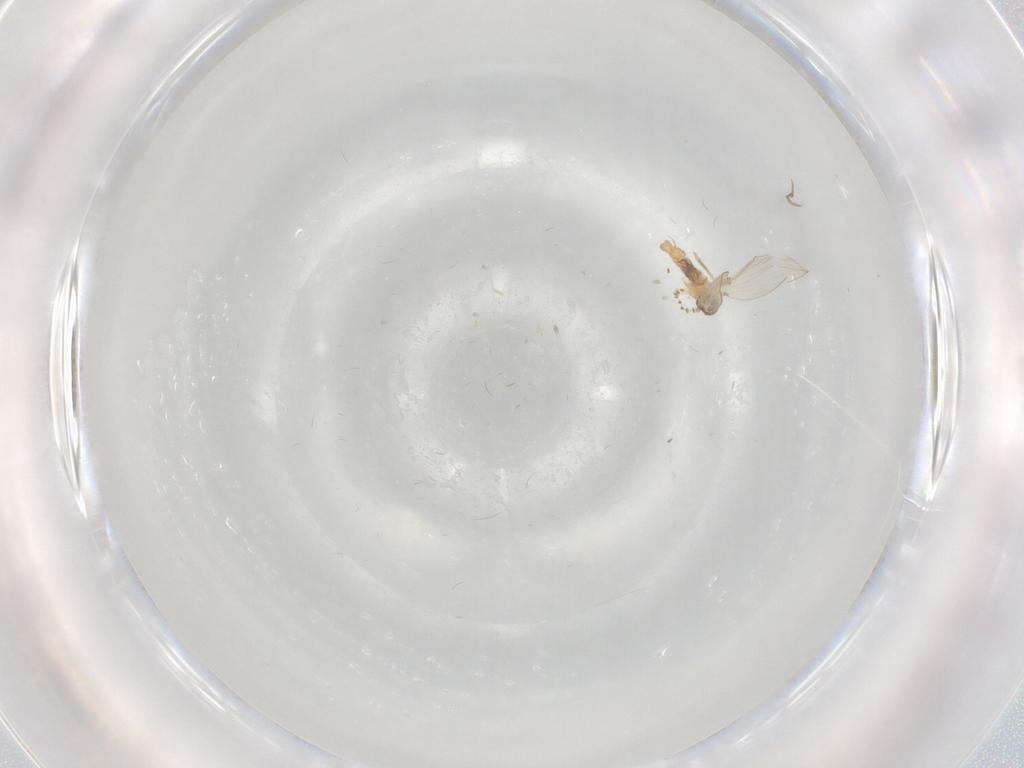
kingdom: Animalia
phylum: Arthropoda
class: Insecta
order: Diptera
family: Psychodidae
